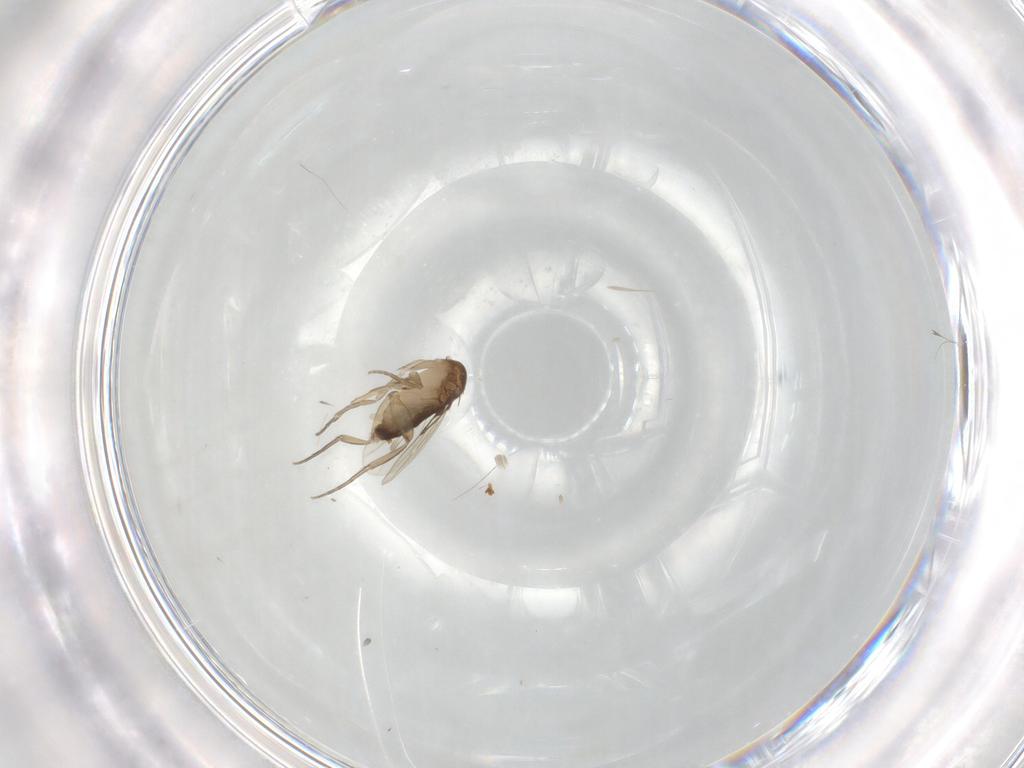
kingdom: Animalia
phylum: Arthropoda
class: Insecta
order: Diptera
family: Phoridae
